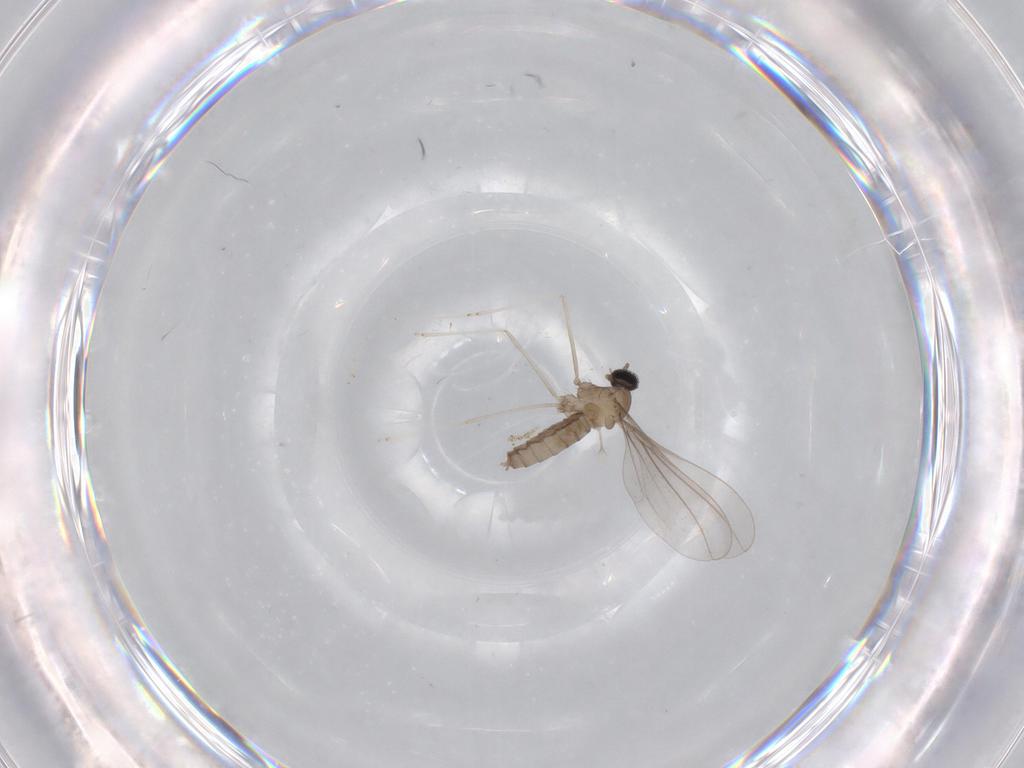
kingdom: Animalia
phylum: Arthropoda
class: Insecta
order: Diptera
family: Cecidomyiidae
